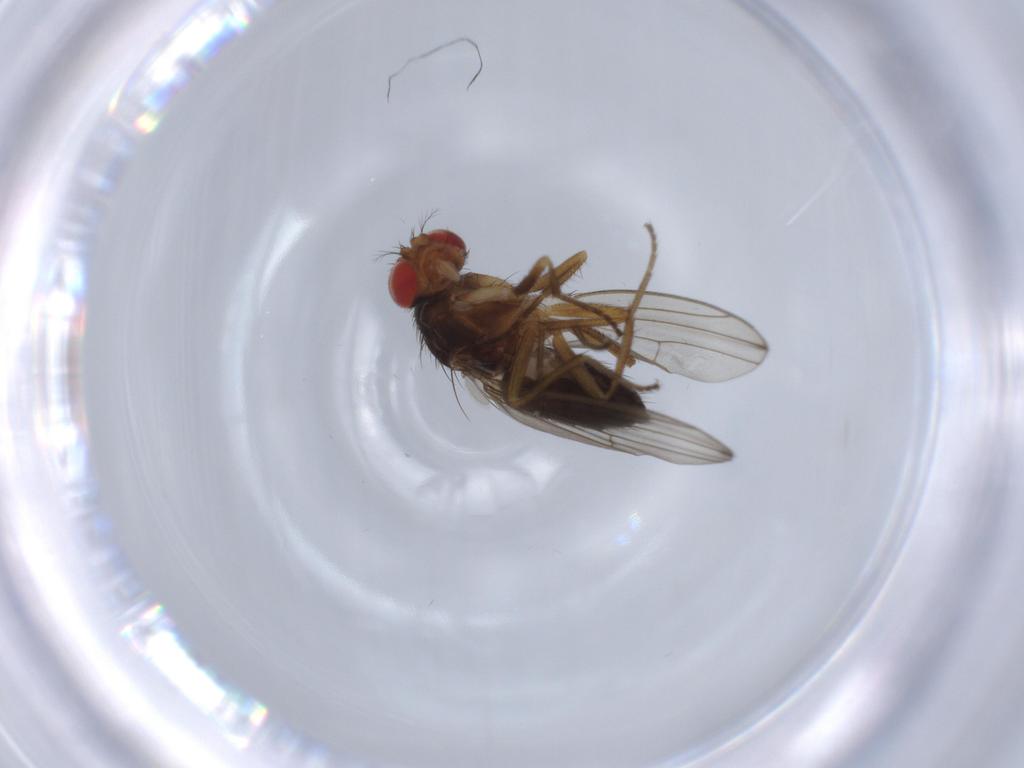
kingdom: Animalia
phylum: Arthropoda
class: Insecta
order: Diptera
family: Drosophilidae
